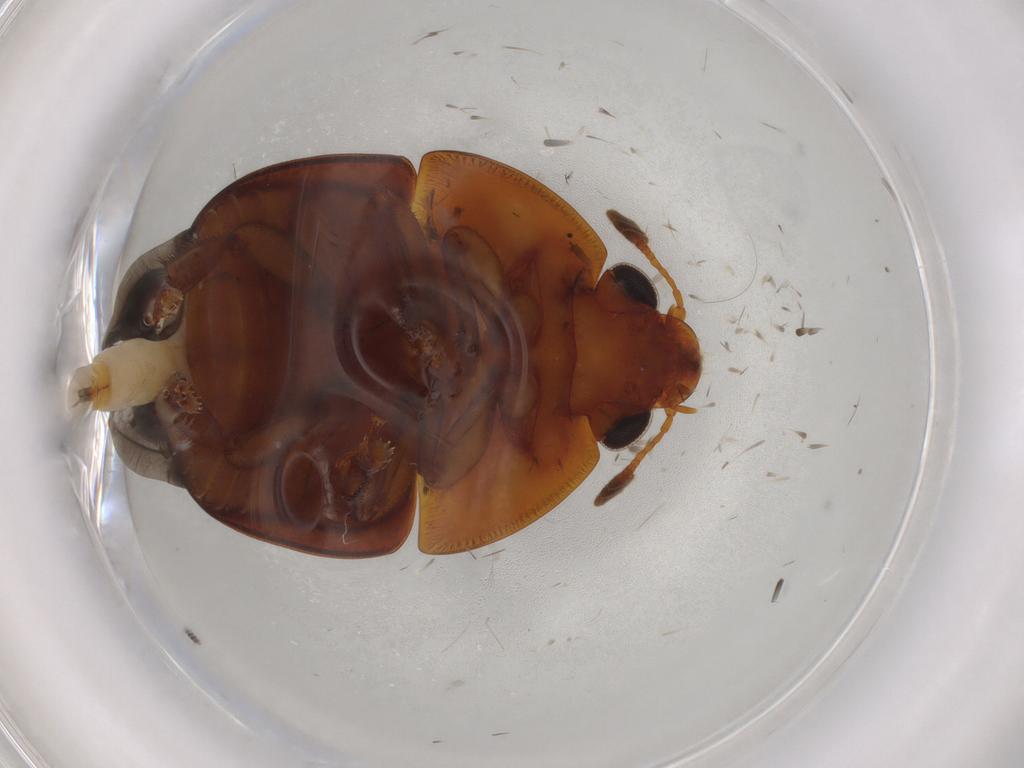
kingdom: Animalia
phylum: Arthropoda
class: Insecta
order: Coleoptera
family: Nitidulidae
